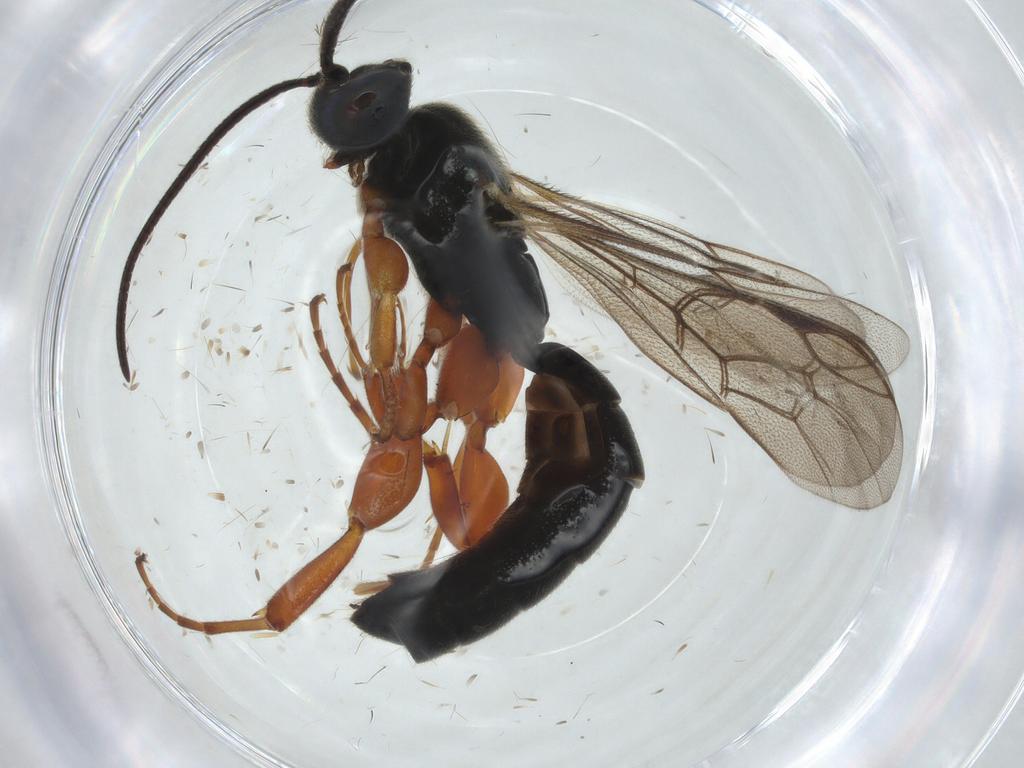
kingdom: Animalia
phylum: Arthropoda
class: Insecta
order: Hymenoptera
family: Ichneumonidae
